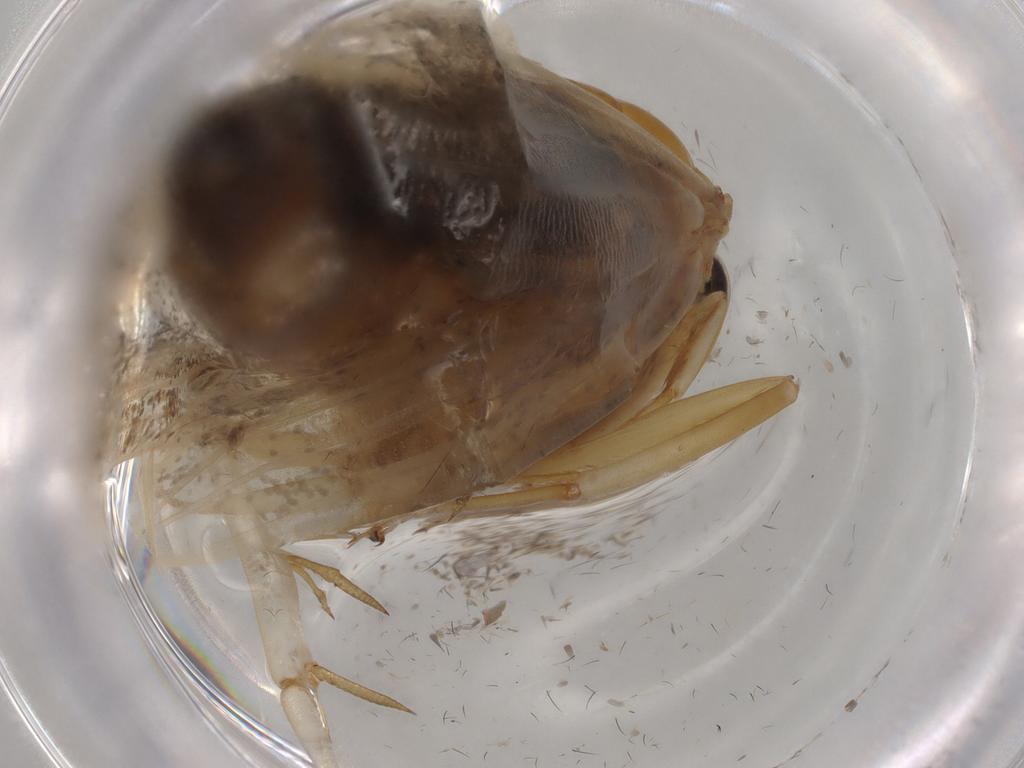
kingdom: Animalia
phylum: Arthropoda
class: Insecta
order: Lepidoptera
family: Tineidae
